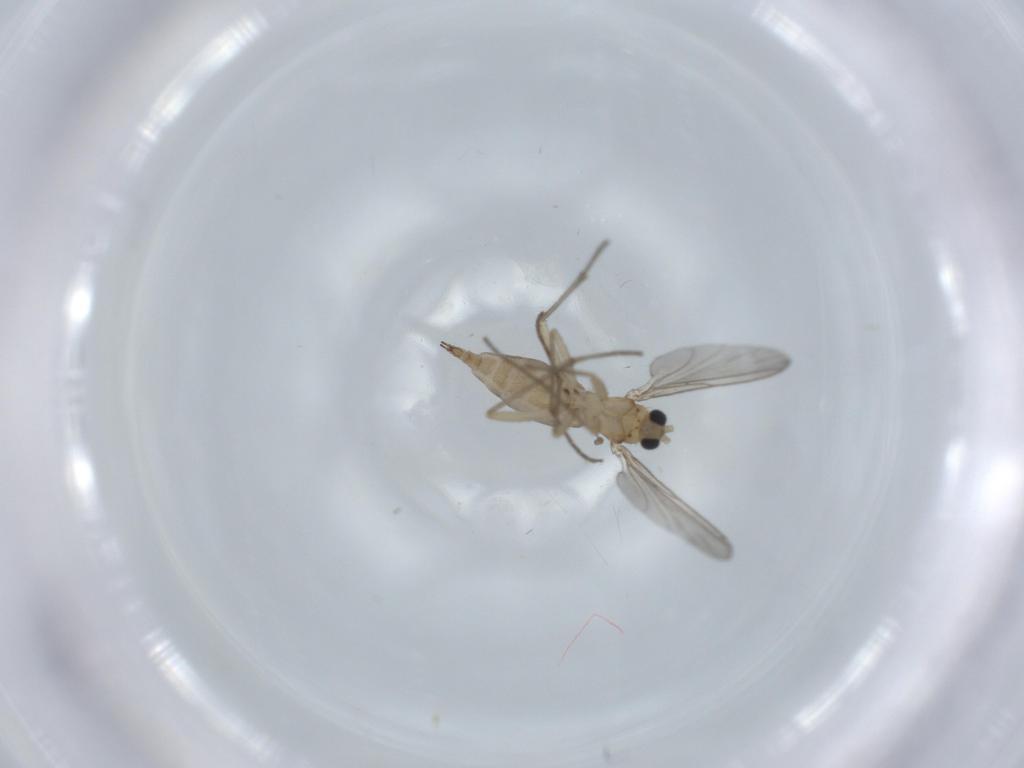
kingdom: Animalia
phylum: Arthropoda
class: Insecta
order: Diptera
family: Sciaridae
